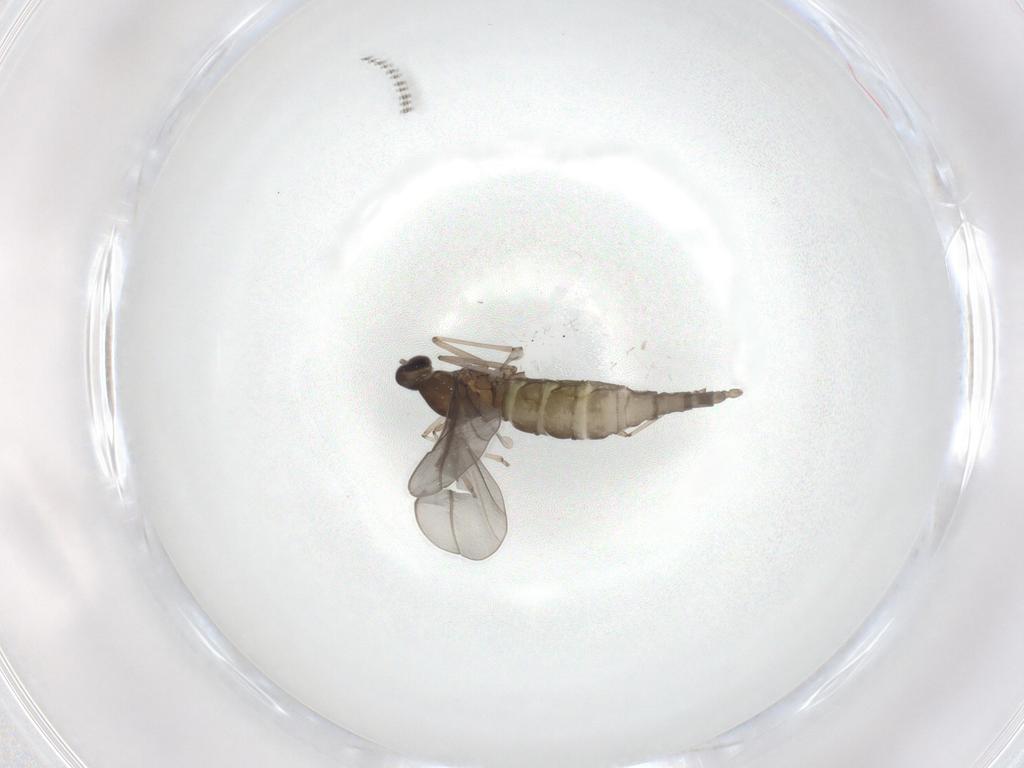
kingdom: Animalia
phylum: Arthropoda
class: Insecta
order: Diptera
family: Cecidomyiidae
